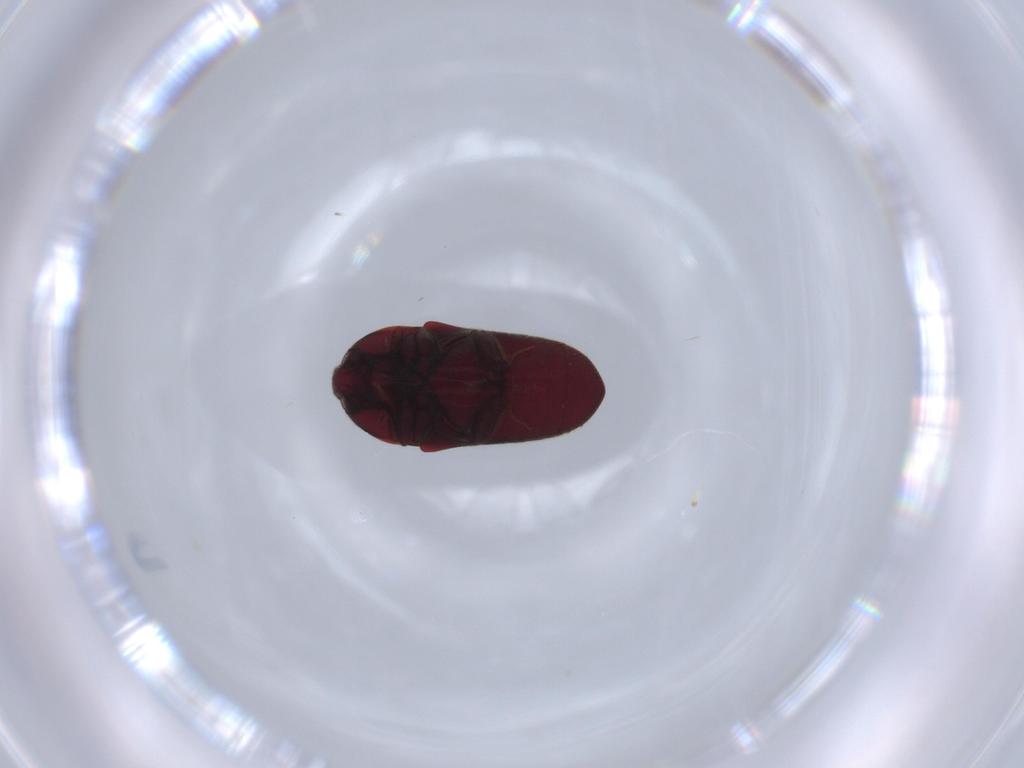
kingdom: Animalia
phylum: Arthropoda
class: Insecta
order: Coleoptera
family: Throscidae
